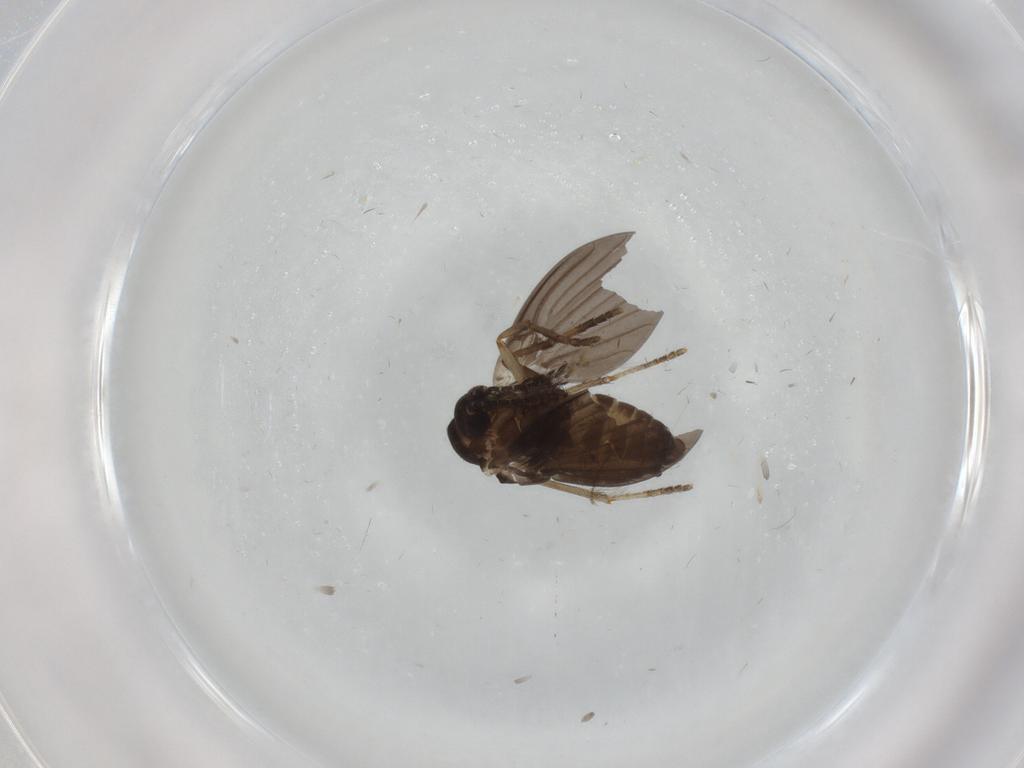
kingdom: Animalia
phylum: Arthropoda
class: Insecta
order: Diptera
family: Chironomidae
